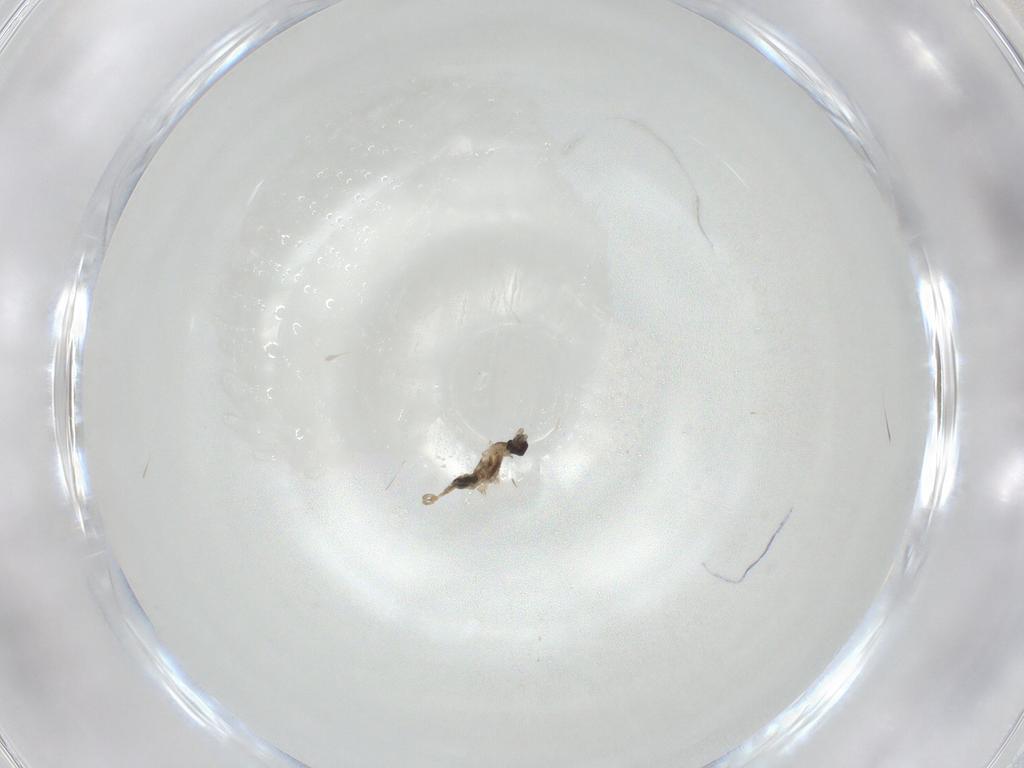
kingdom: Animalia
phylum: Arthropoda
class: Insecta
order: Diptera
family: Cecidomyiidae
